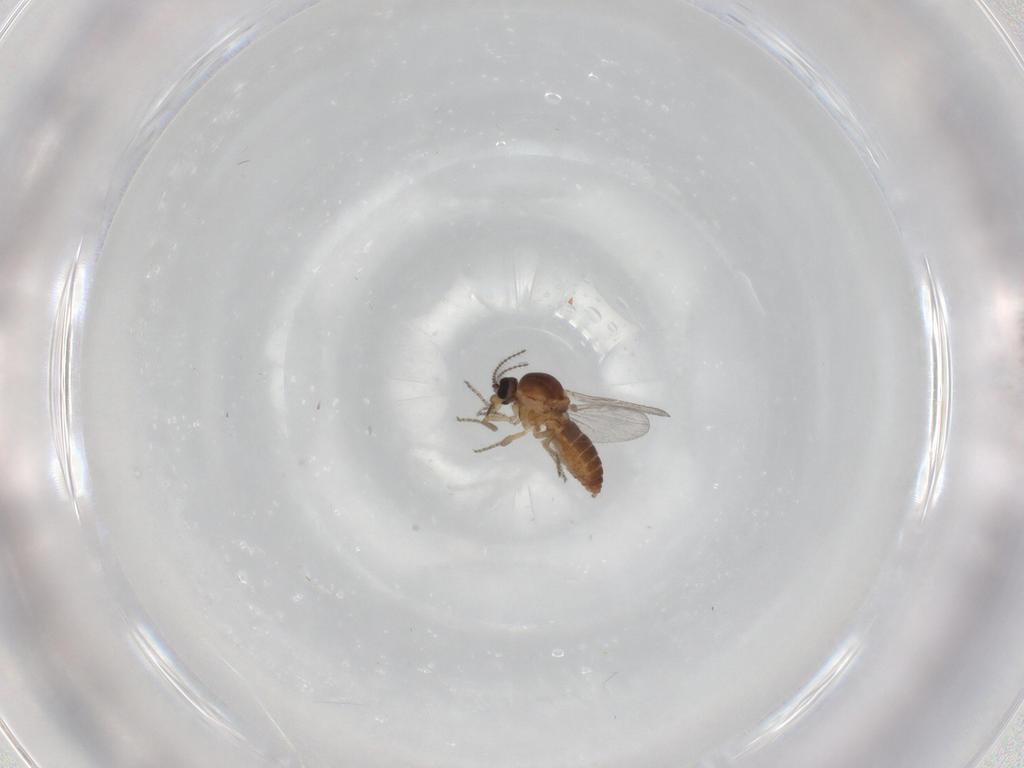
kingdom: Animalia
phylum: Arthropoda
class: Insecta
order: Diptera
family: Ceratopogonidae
